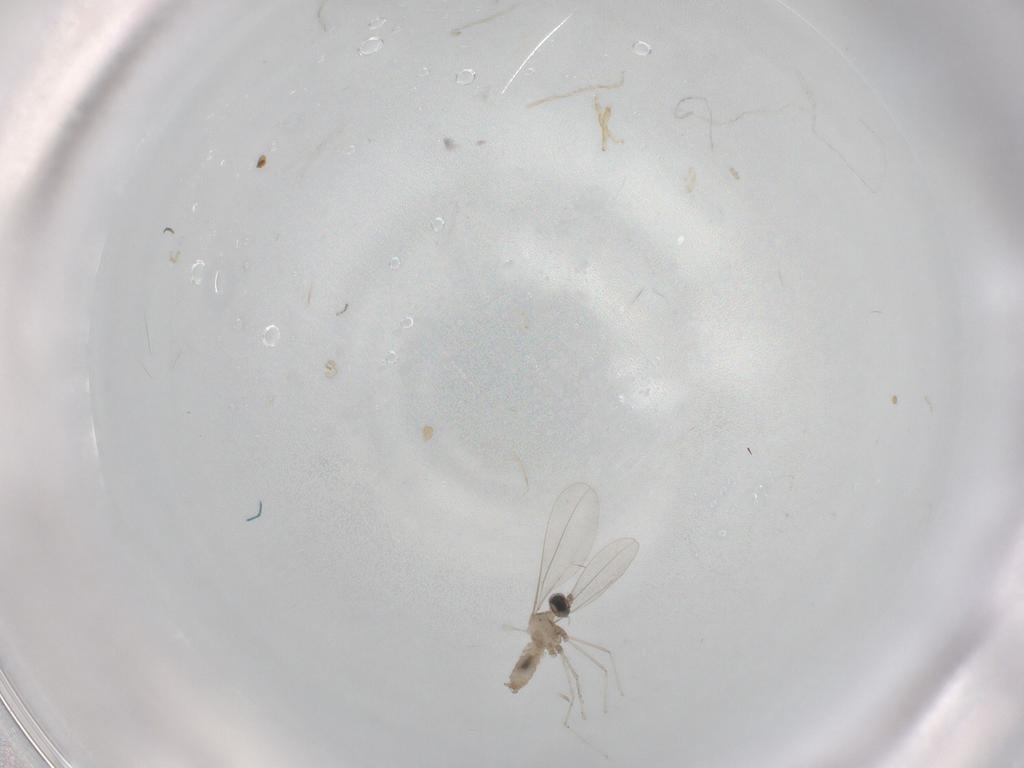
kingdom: Animalia
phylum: Arthropoda
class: Insecta
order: Diptera
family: Cecidomyiidae
